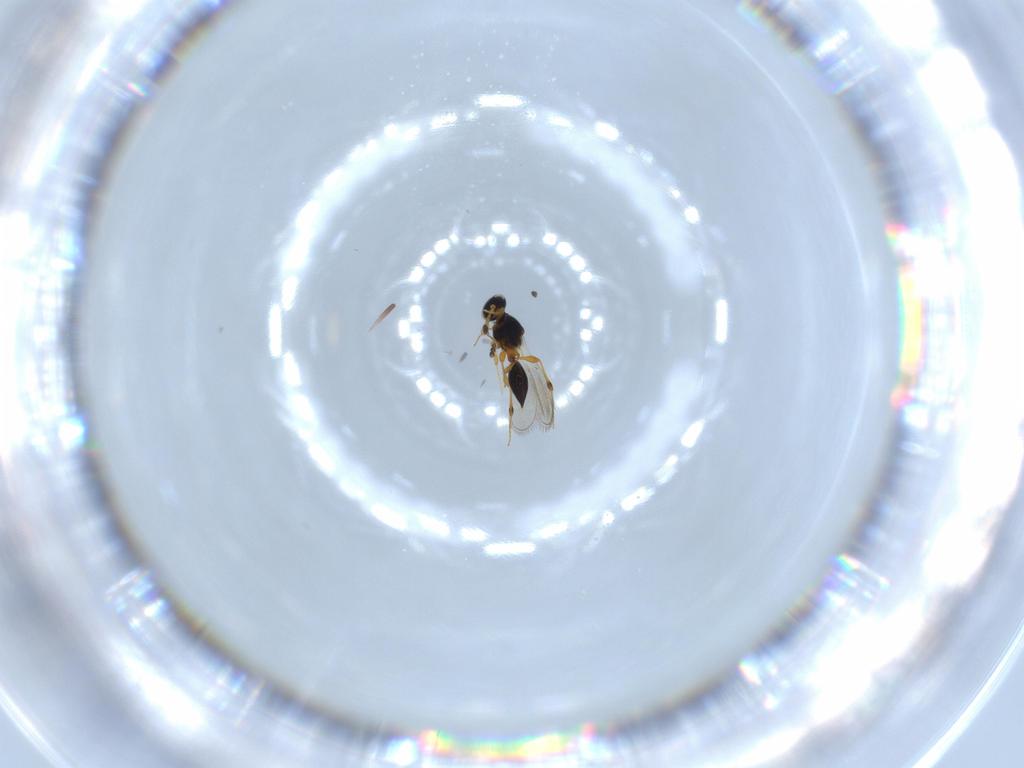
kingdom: Animalia
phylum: Arthropoda
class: Insecta
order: Hymenoptera
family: Platygastridae
